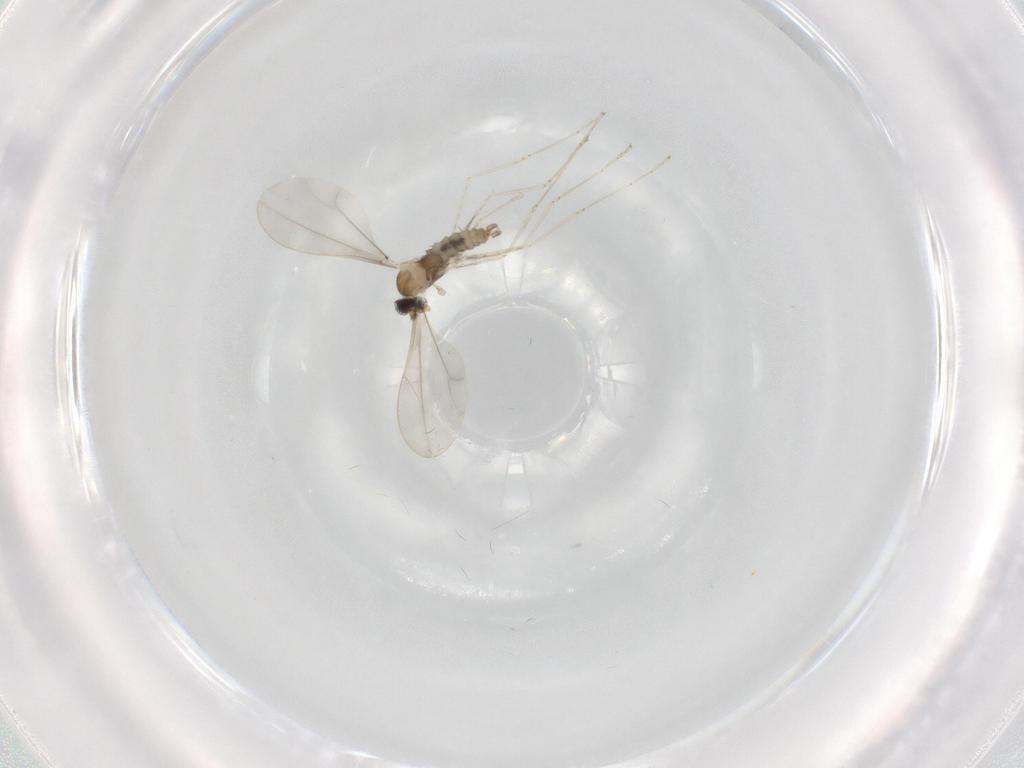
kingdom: Animalia
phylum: Arthropoda
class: Insecta
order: Diptera
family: Cecidomyiidae
